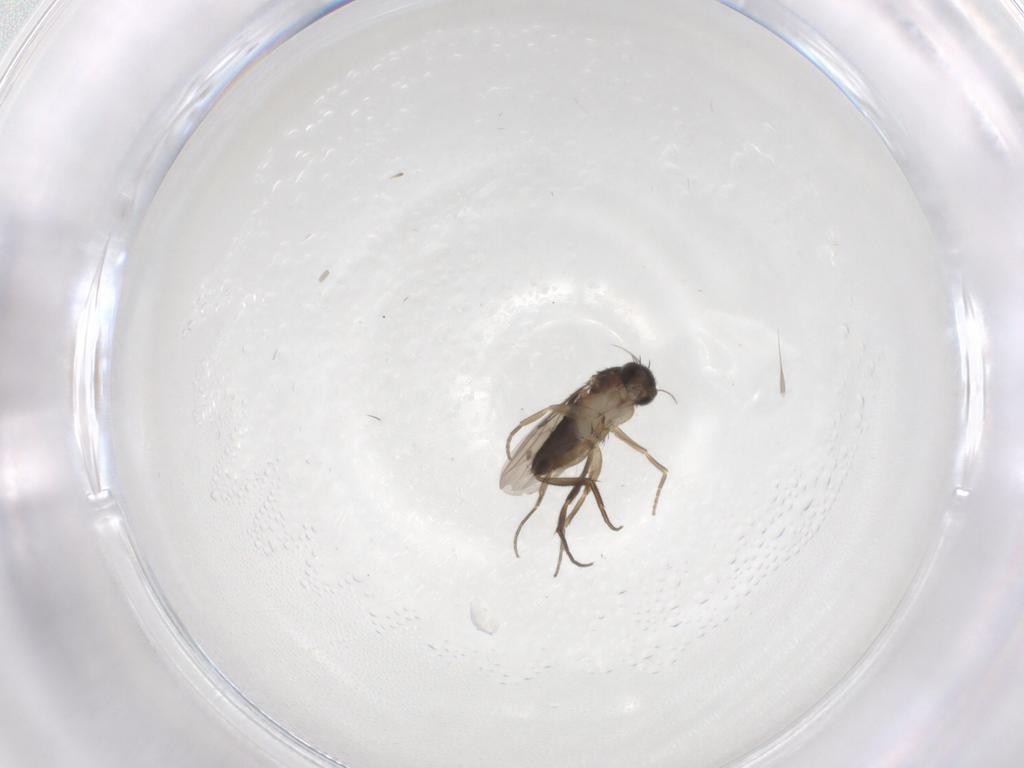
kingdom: Animalia
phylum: Arthropoda
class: Insecta
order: Diptera
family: Phoridae
